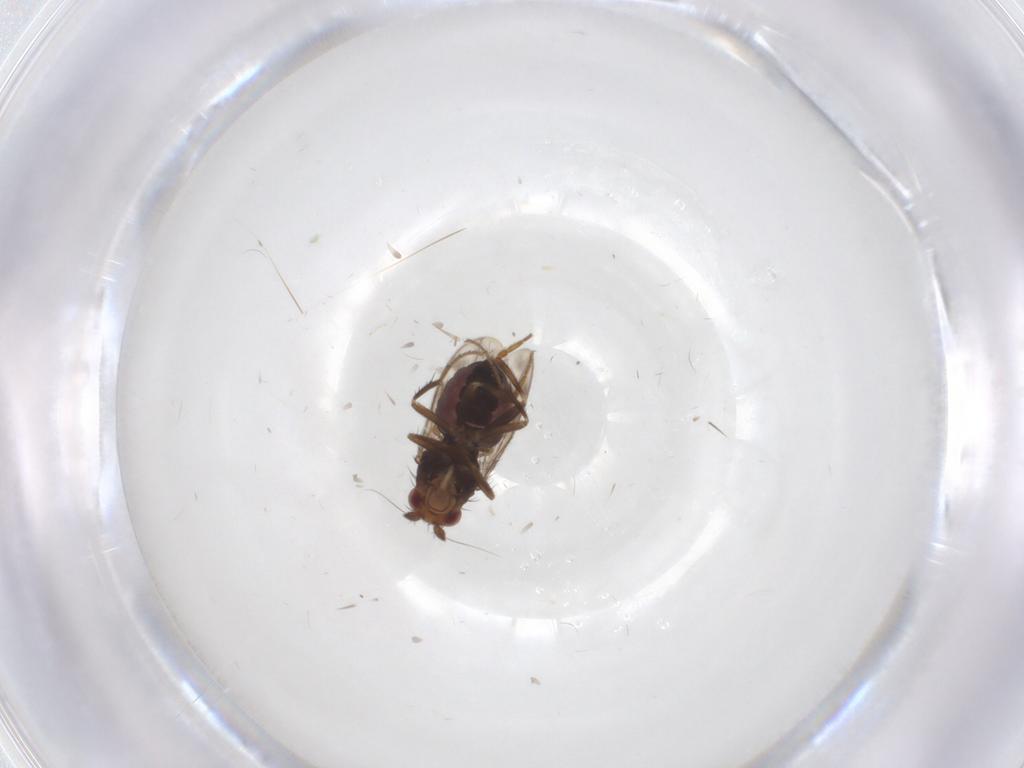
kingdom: Animalia
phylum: Arthropoda
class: Insecta
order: Diptera
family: Sphaeroceridae
